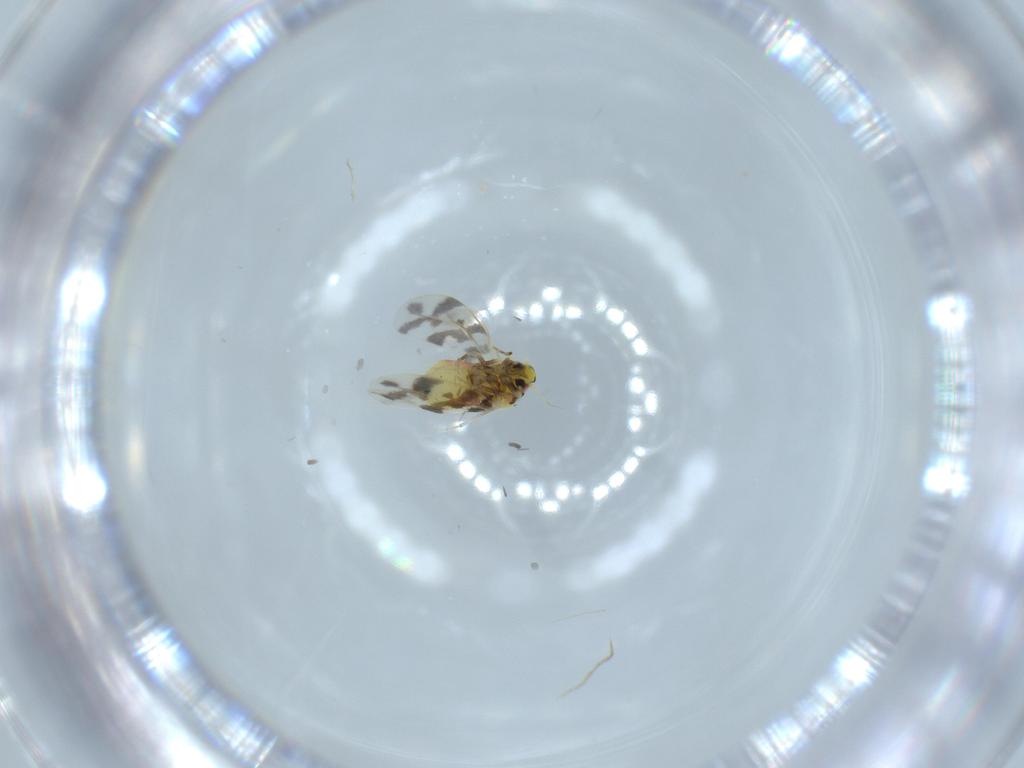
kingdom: Animalia
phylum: Arthropoda
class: Insecta
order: Hemiptera
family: Aleyrodidae
